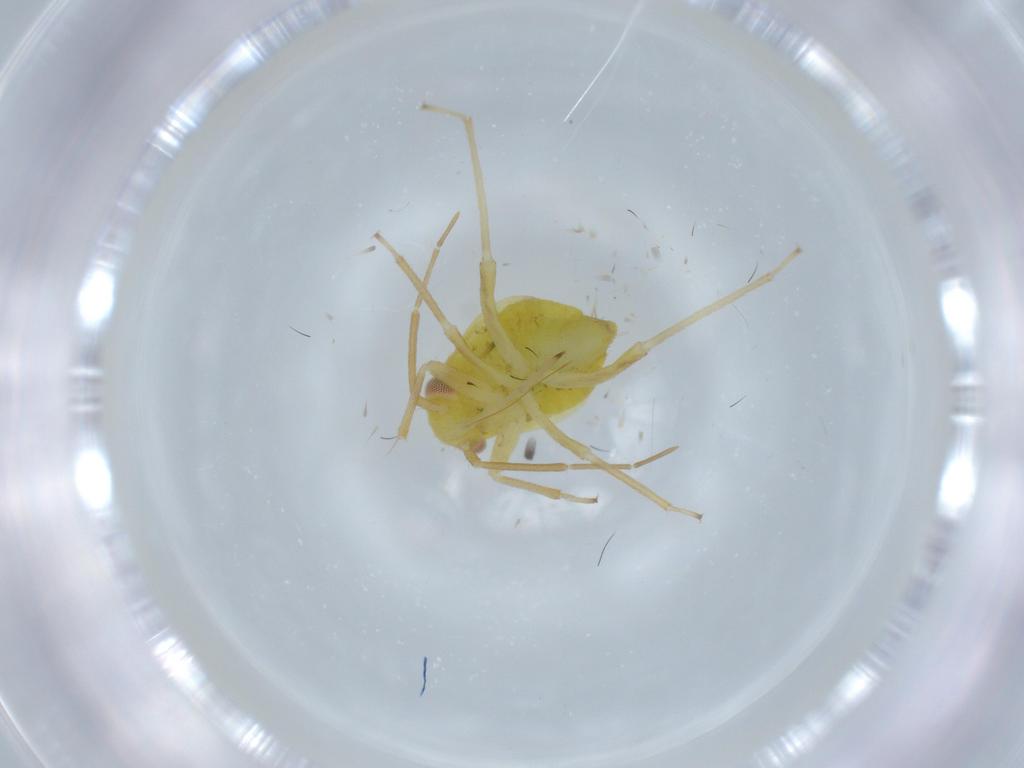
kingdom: Animalia
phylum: Arthropoda
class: Insecta
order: Hemiptera
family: Miridae
